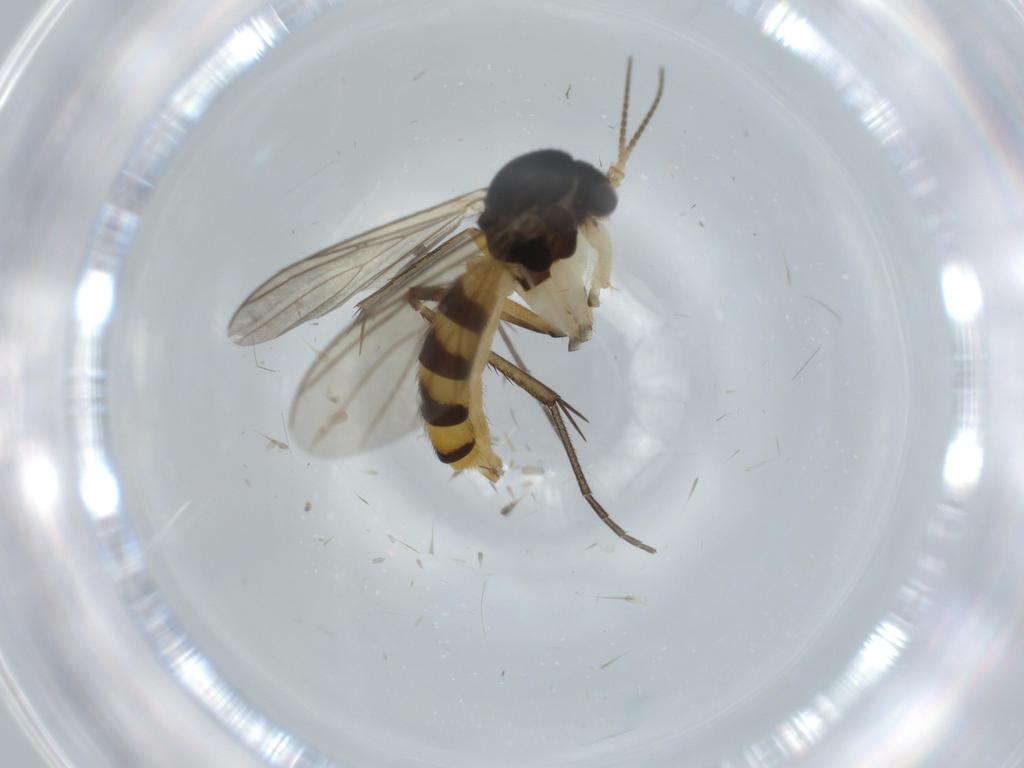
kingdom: Animalia
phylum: Arthropoda
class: Insecta
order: Diptera
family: Mycetophilidae
